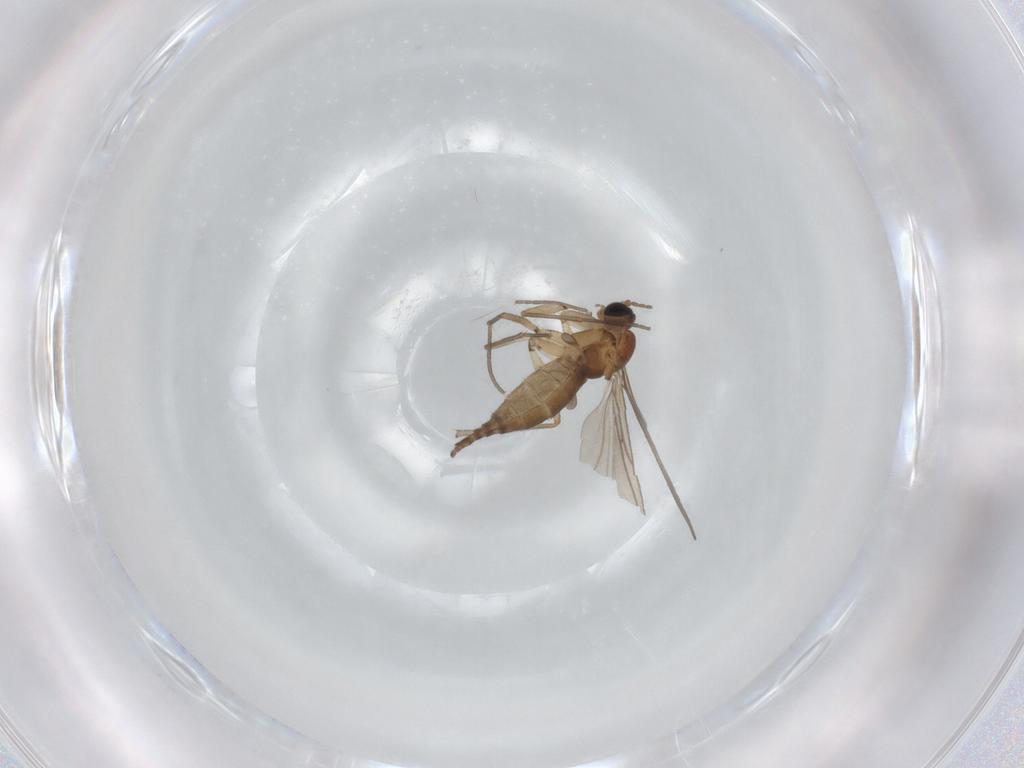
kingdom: Animalia
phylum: Arthropoda
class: Insecta
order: Diptera
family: Sciaridae
